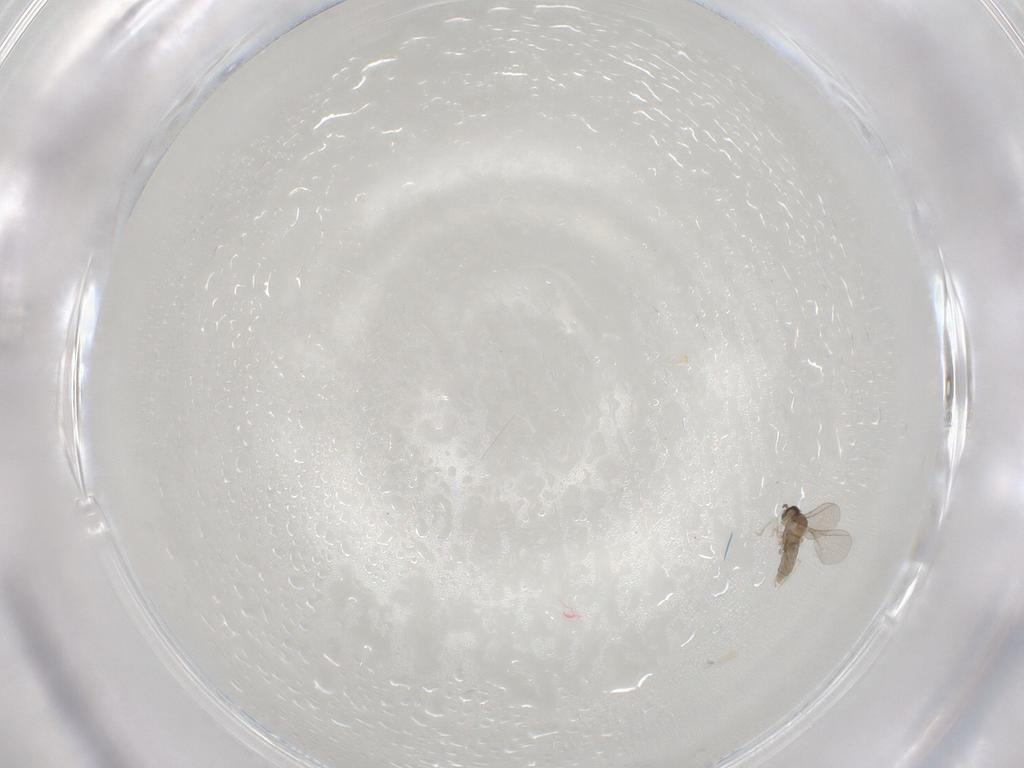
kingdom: Animalia
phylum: Arthropoda
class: Insecta
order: Diptera
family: Cecidomyiidae
